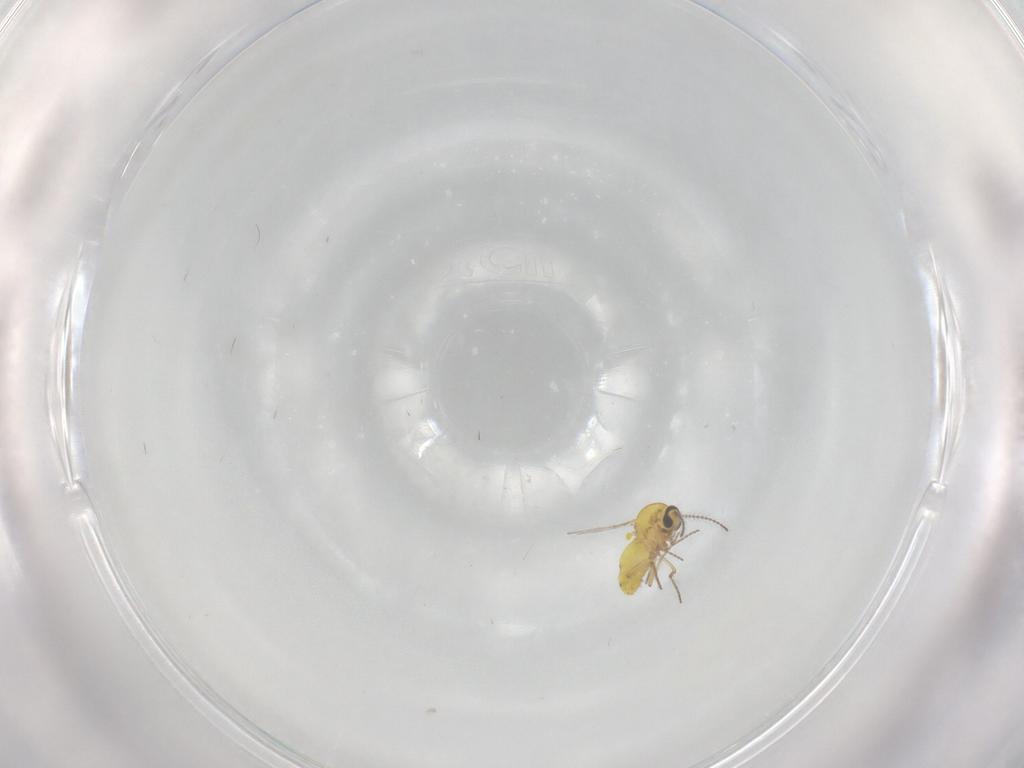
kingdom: Animalia
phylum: Arthropoda
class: Insecta
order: Diptera
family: Ceratopogonidae
